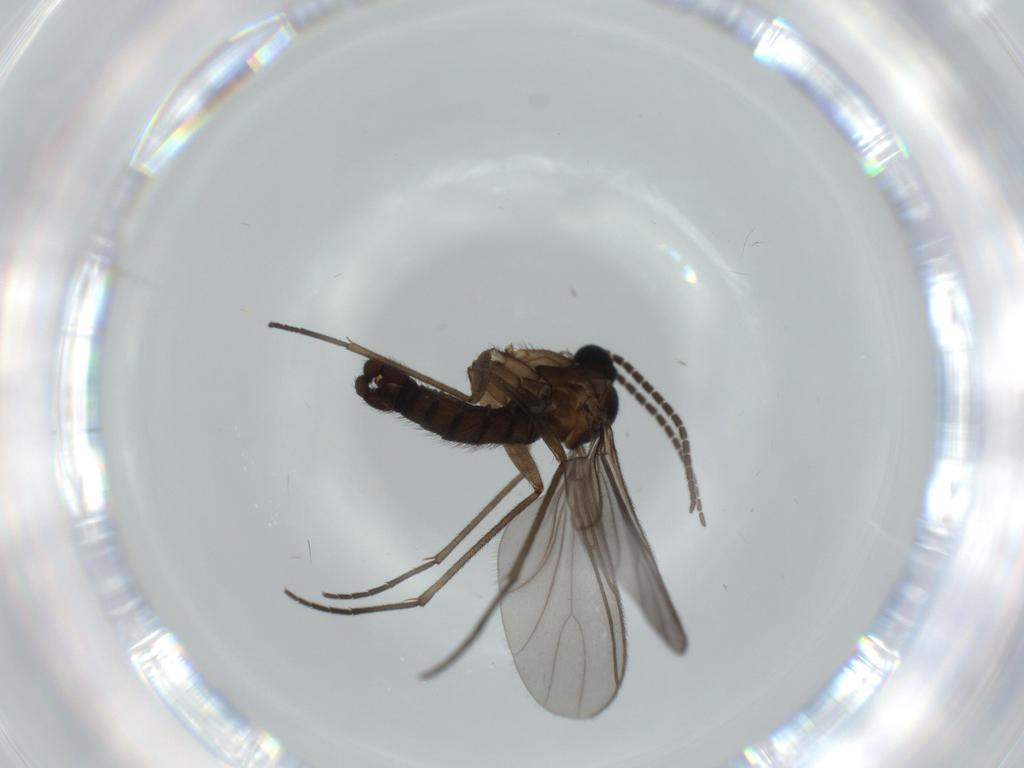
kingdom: Animalia
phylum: Arthropoda
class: Insecta
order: Diptera
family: Sciaridae
